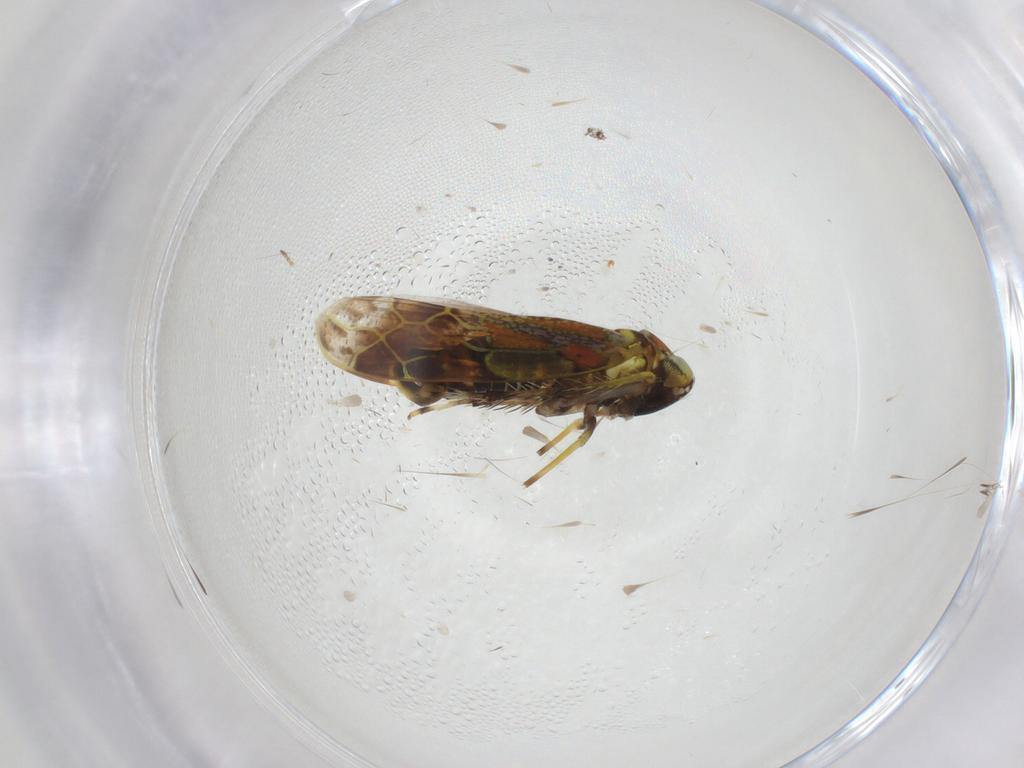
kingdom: Animalia
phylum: Arthropoda
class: Insecta
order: Hemiptera
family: Cicadellidae
